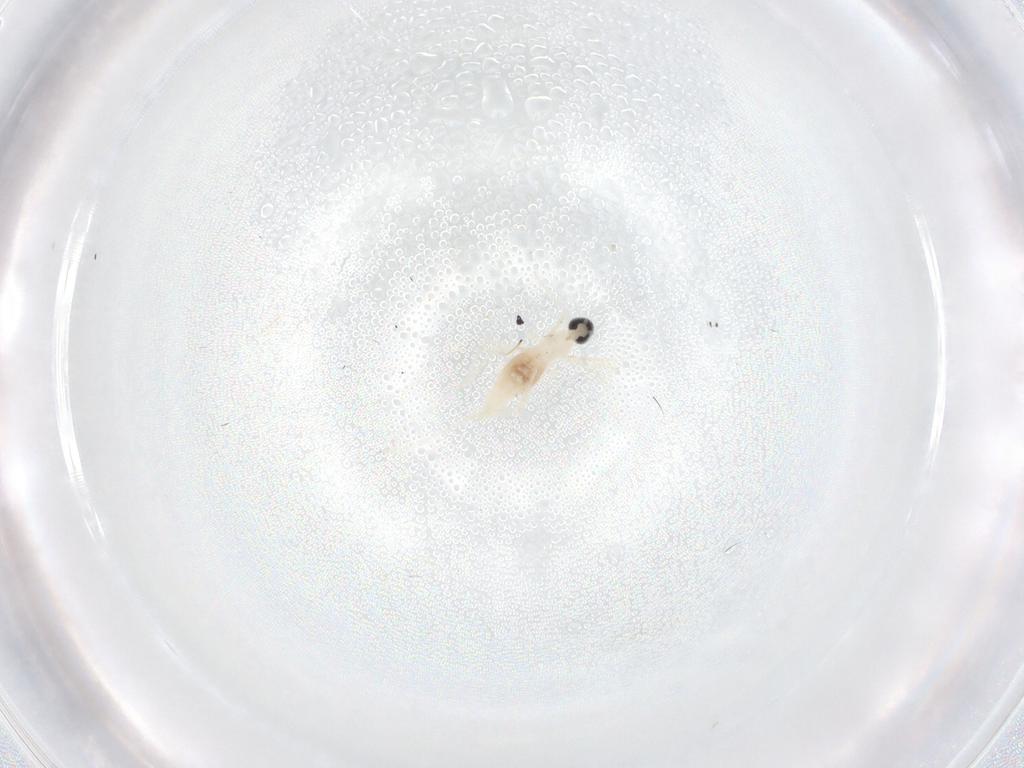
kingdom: Animalia
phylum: Arthropoda
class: Insecta
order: Diptera
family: Cecidomyiidae
